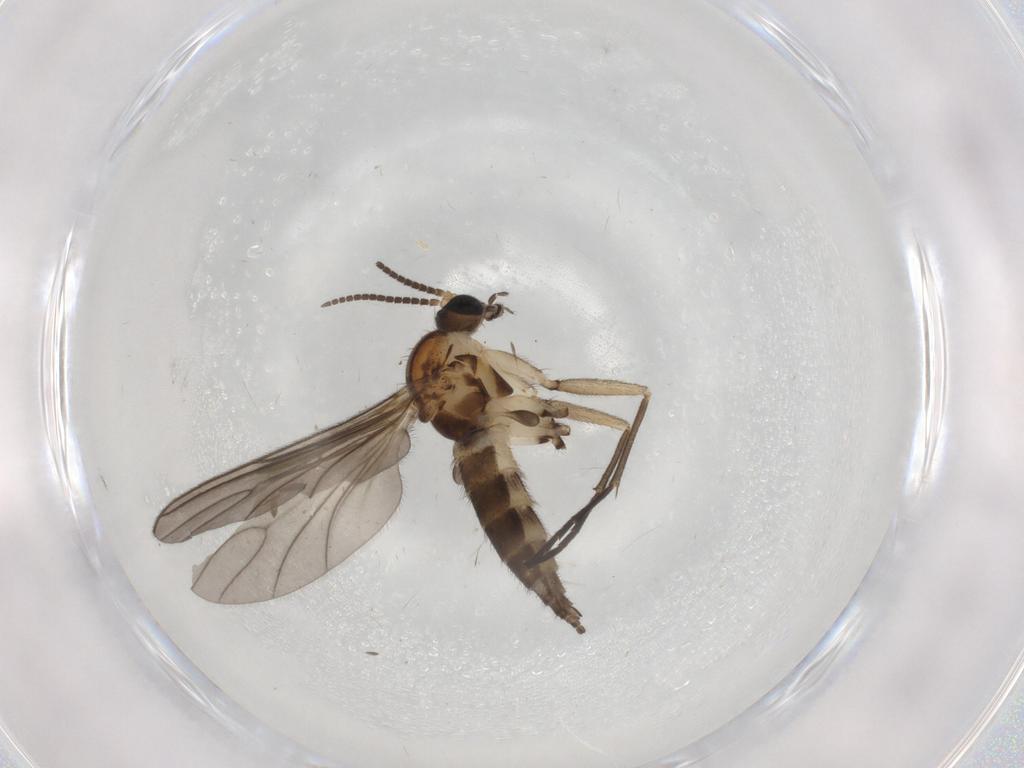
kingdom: Animalia
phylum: Arthropoda
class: Insecta
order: Diptera
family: Sciaridae
